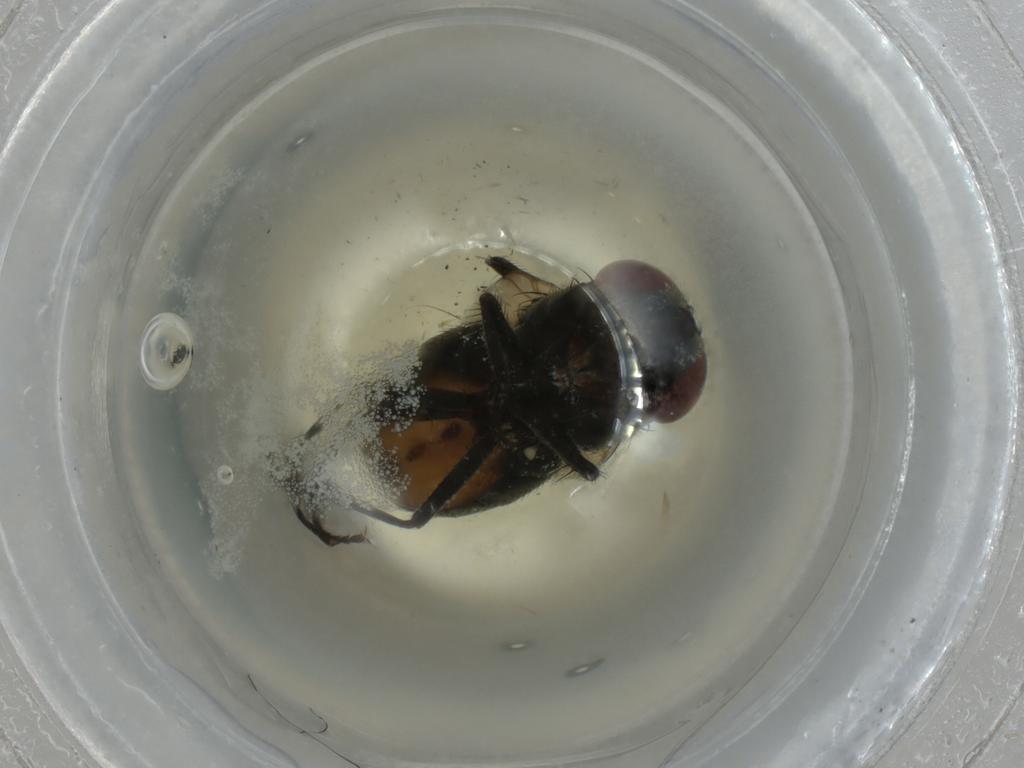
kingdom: Animalia
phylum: Arthropoda
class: Insecta
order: Diptera
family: Muscidae
